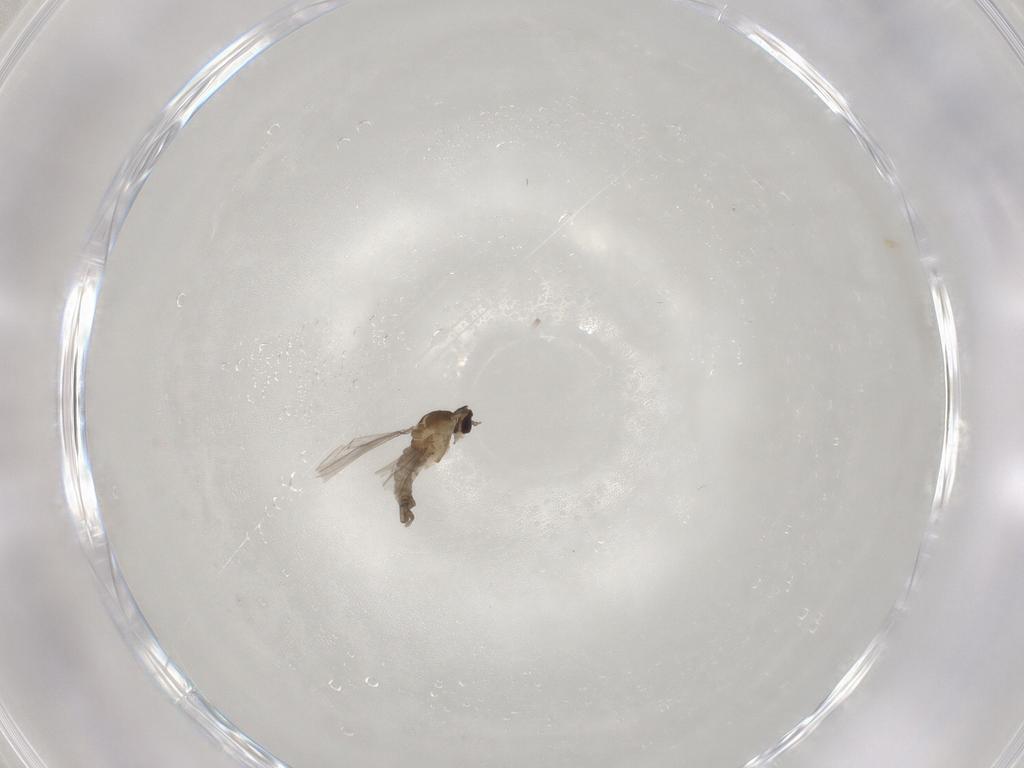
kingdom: Animalia
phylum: Arthropoda
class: Insecta
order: Diptera
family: Cecidomyiidae
